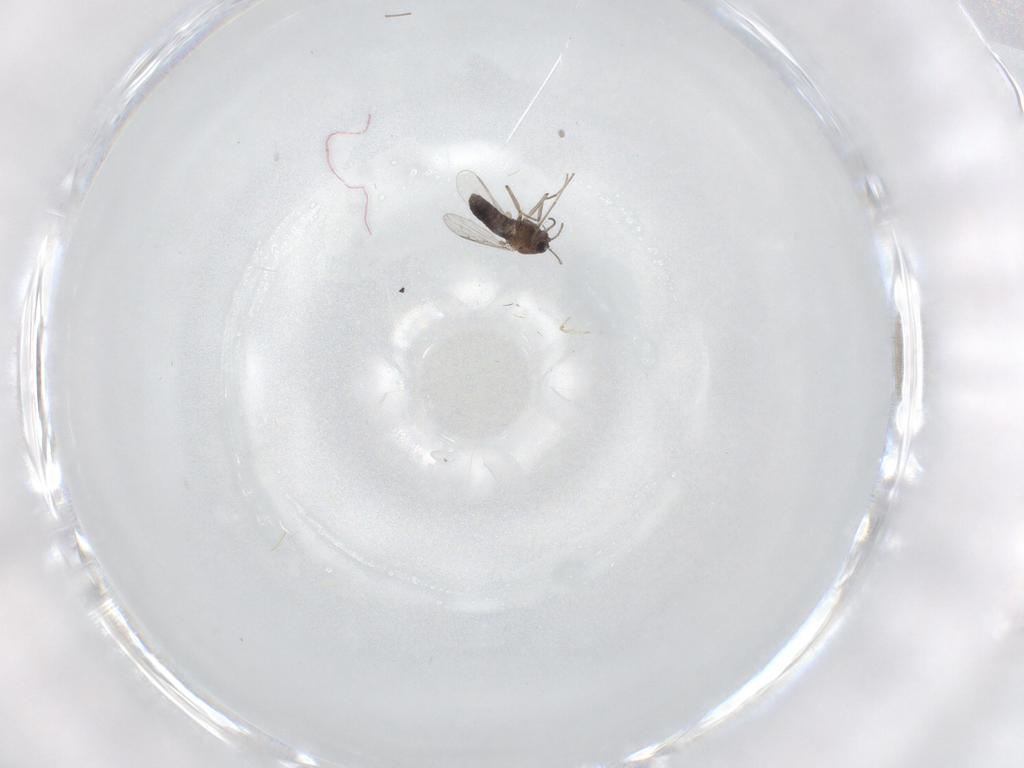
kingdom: Animalia
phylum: Arthropoda
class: Insecta
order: Diptera
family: Chironomidae
